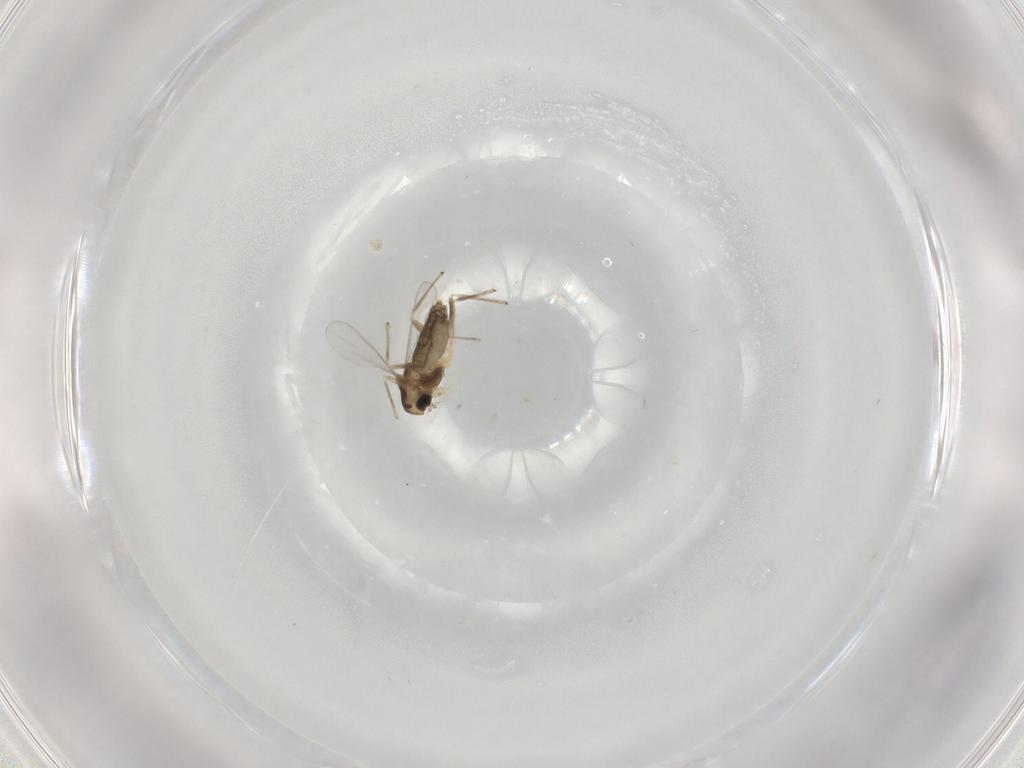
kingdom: Animalia
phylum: Arthropoda
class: Insecta
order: Diptera
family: Chironomidae
